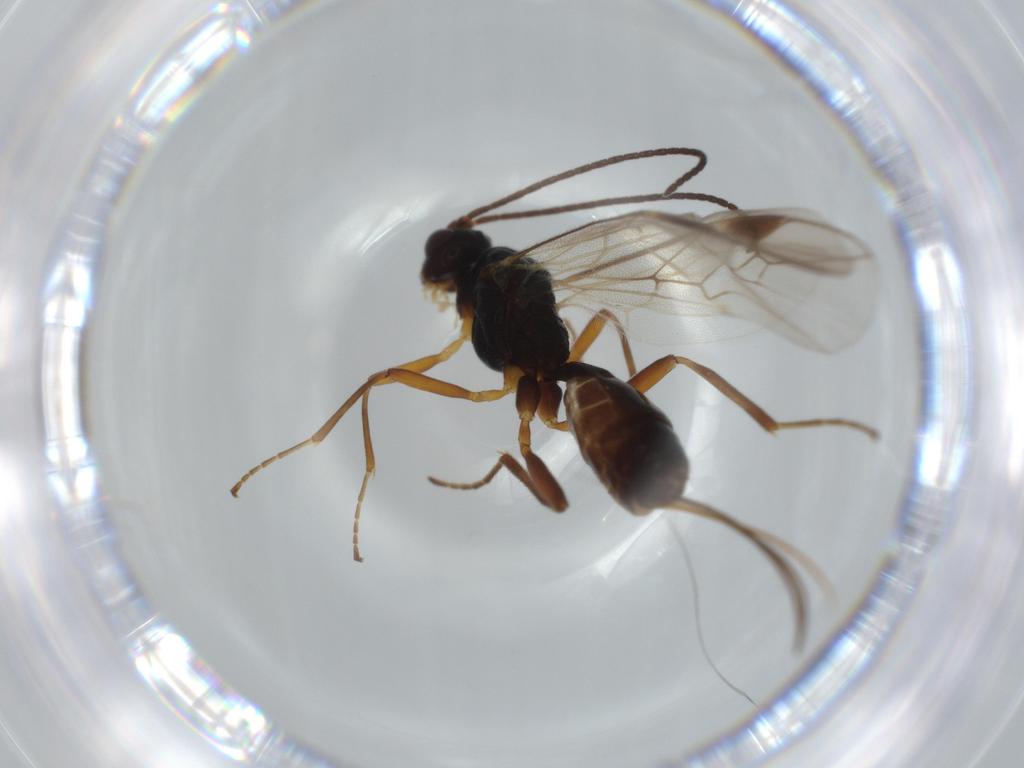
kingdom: Animalia
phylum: Arthropoda
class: Insecta
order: Hymenoptera
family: Braconidae
